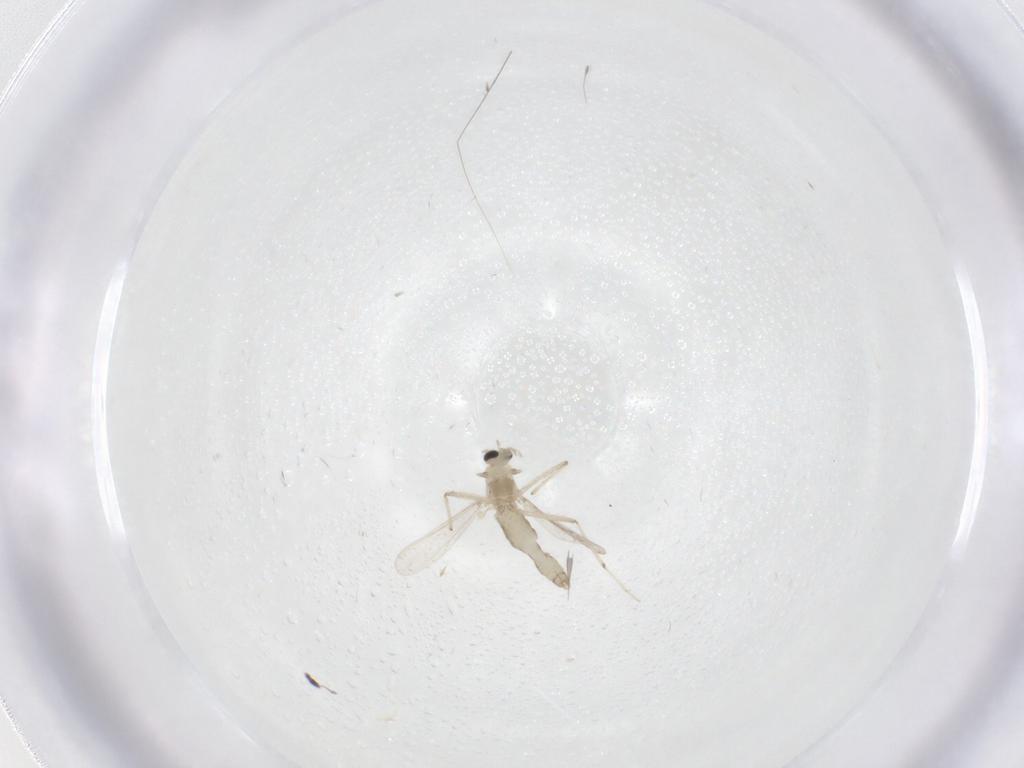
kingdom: Animalia
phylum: Arthropoda
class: Insecta
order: Diptera
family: Chironomidae
